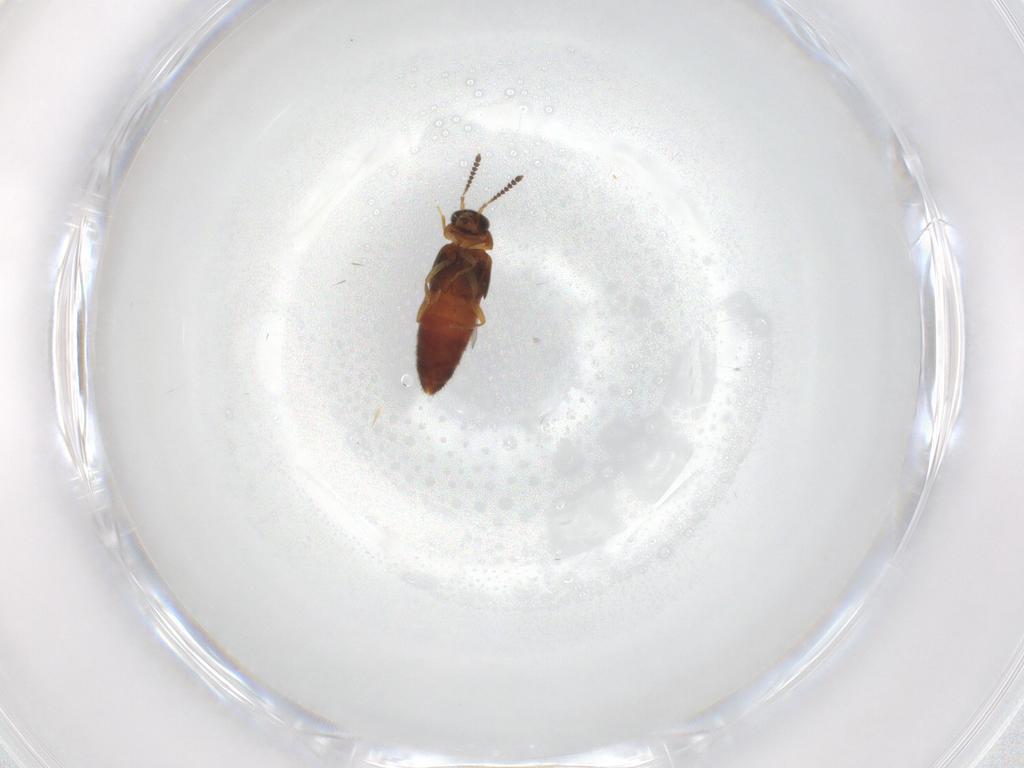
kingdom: Animalia
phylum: Arthropoda
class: Insecta
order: Coleoptera
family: Staphylinidae
